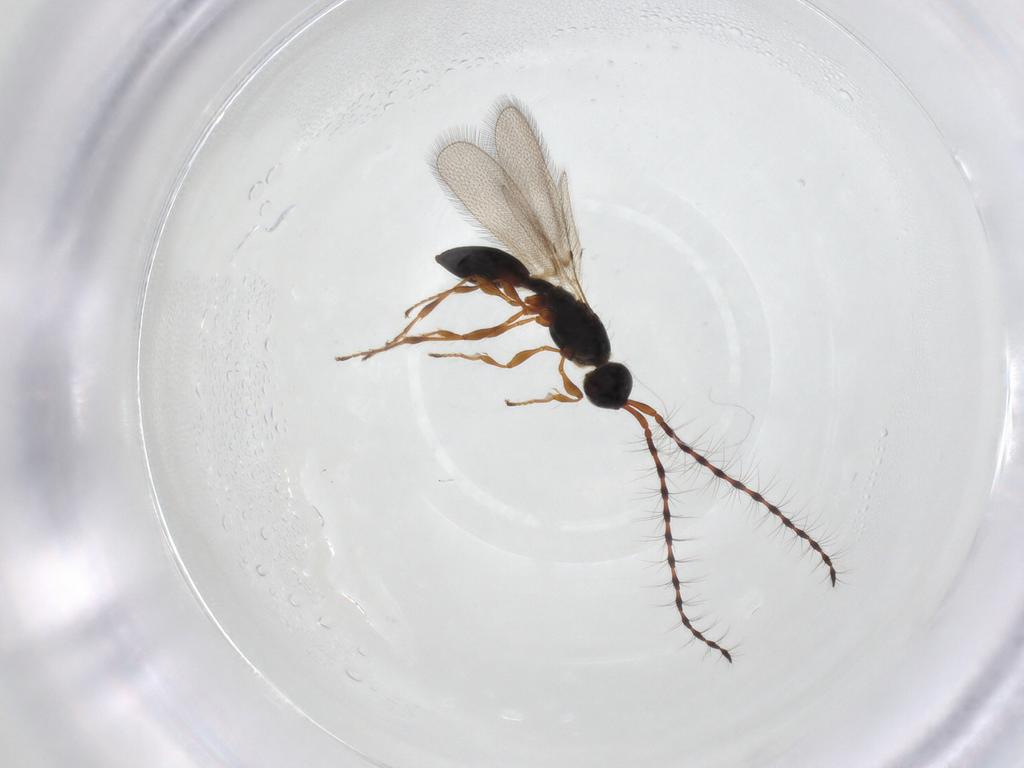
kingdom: Animalia
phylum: Arthropoda
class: Insecta
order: Hymenoptera
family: Diapriidae
